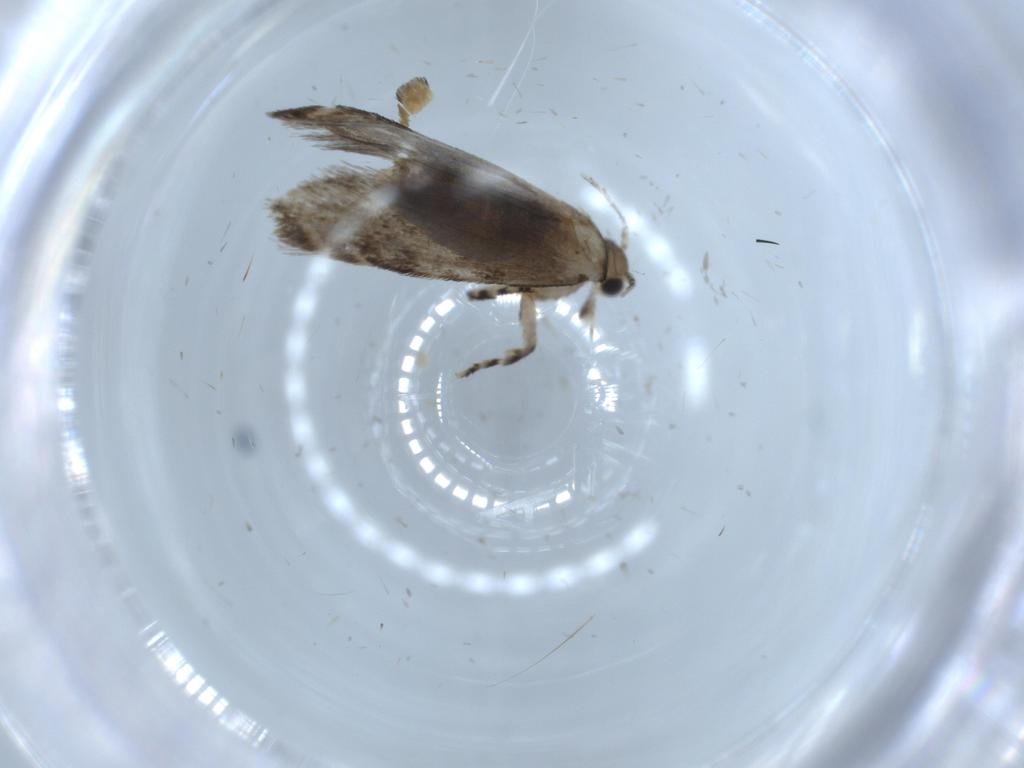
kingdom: Animalia
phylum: Arthropoda
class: Insecta
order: Lepidoptera
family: Tineidae
